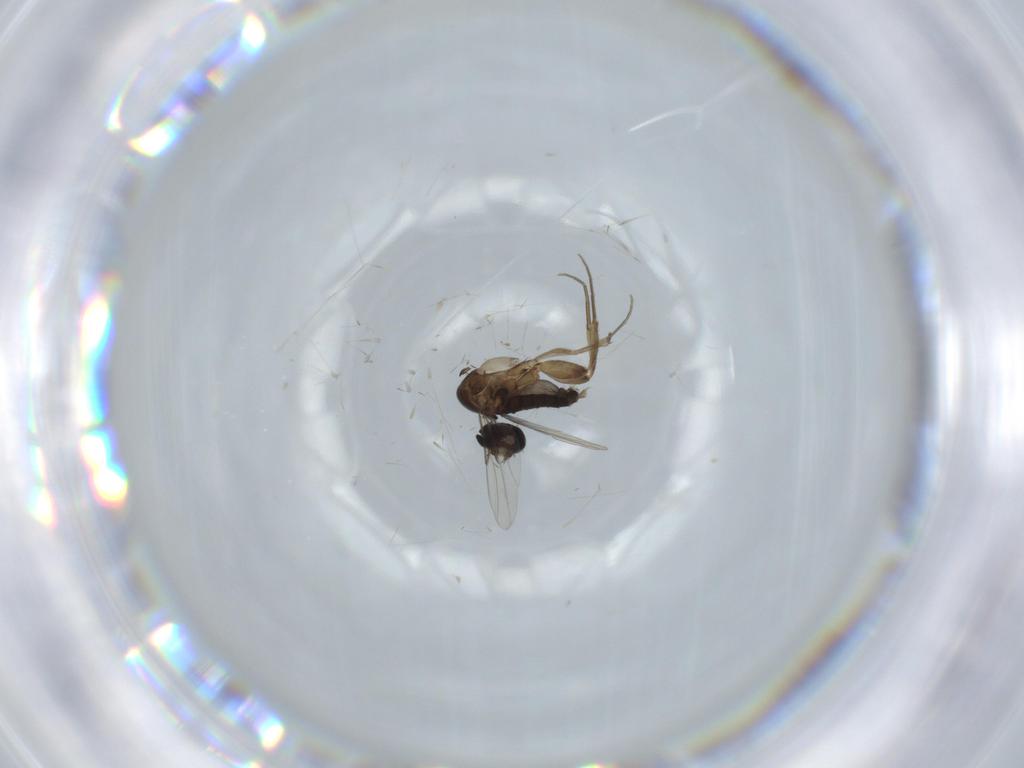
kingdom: Animalia
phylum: Arthropoda
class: Insecta
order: Diptera
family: Phoridae
